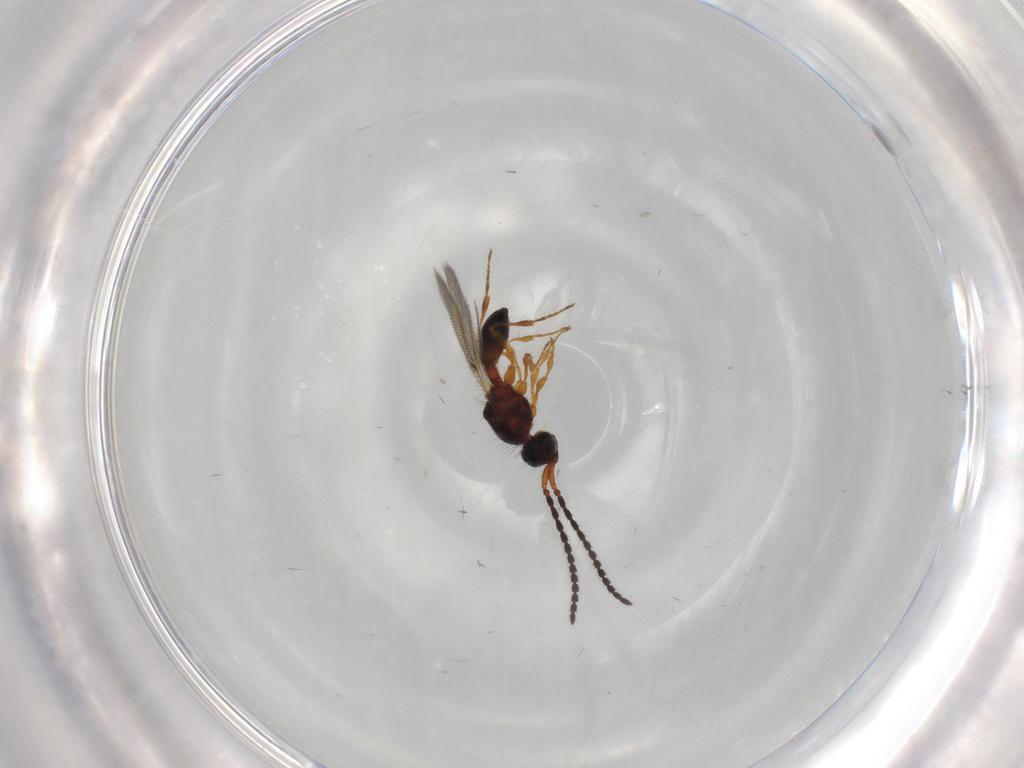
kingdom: Animalia
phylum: Arthropoda
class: Insecta
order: Hymenoptera
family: Diapriidae
